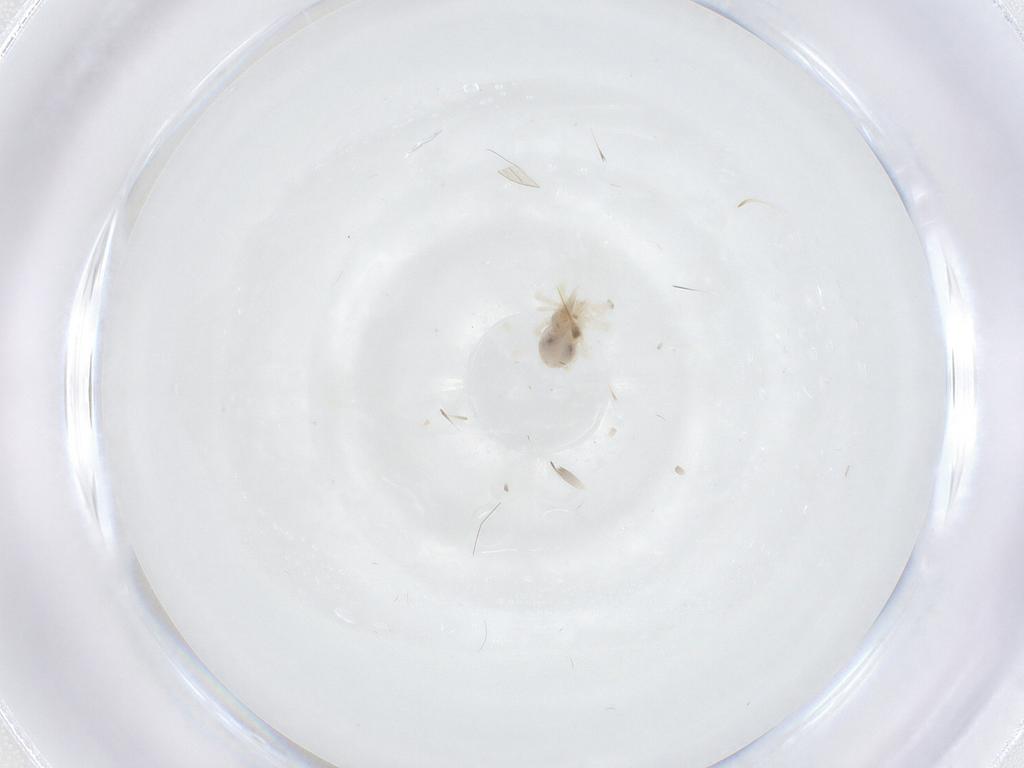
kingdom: Animalia
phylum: Arthropoda
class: Arachnida
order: Trombidiformes
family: Anystidae
